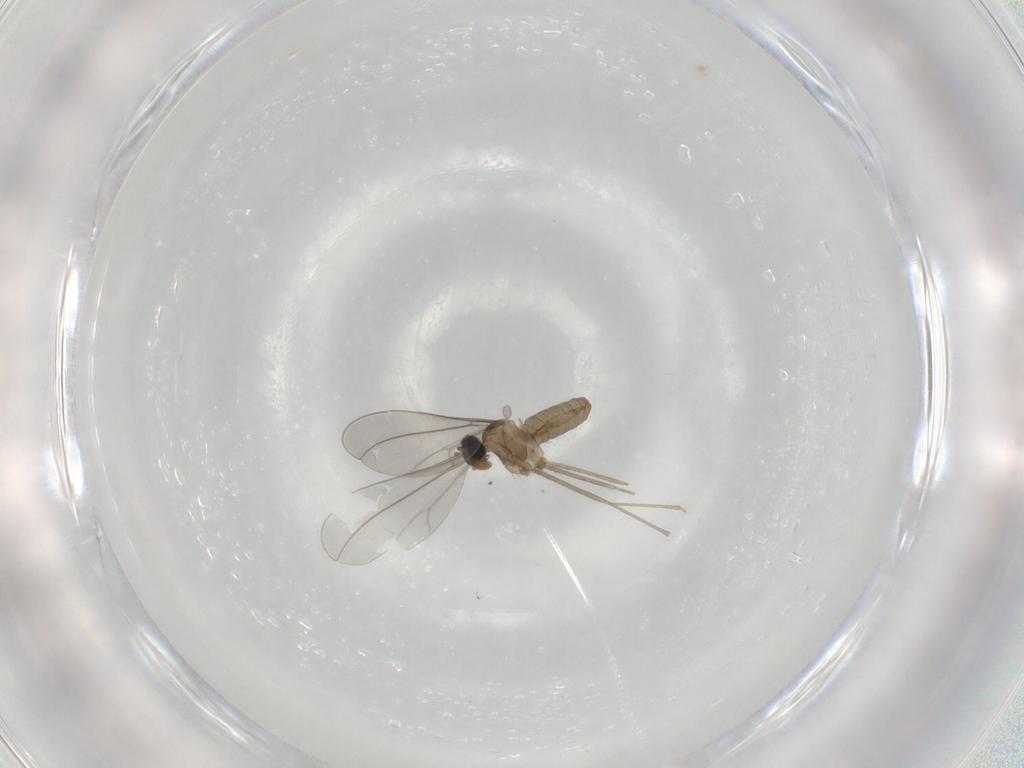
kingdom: Animalia
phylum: Arthropoda
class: Insecta
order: Diptera
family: Cecidomyiidae
